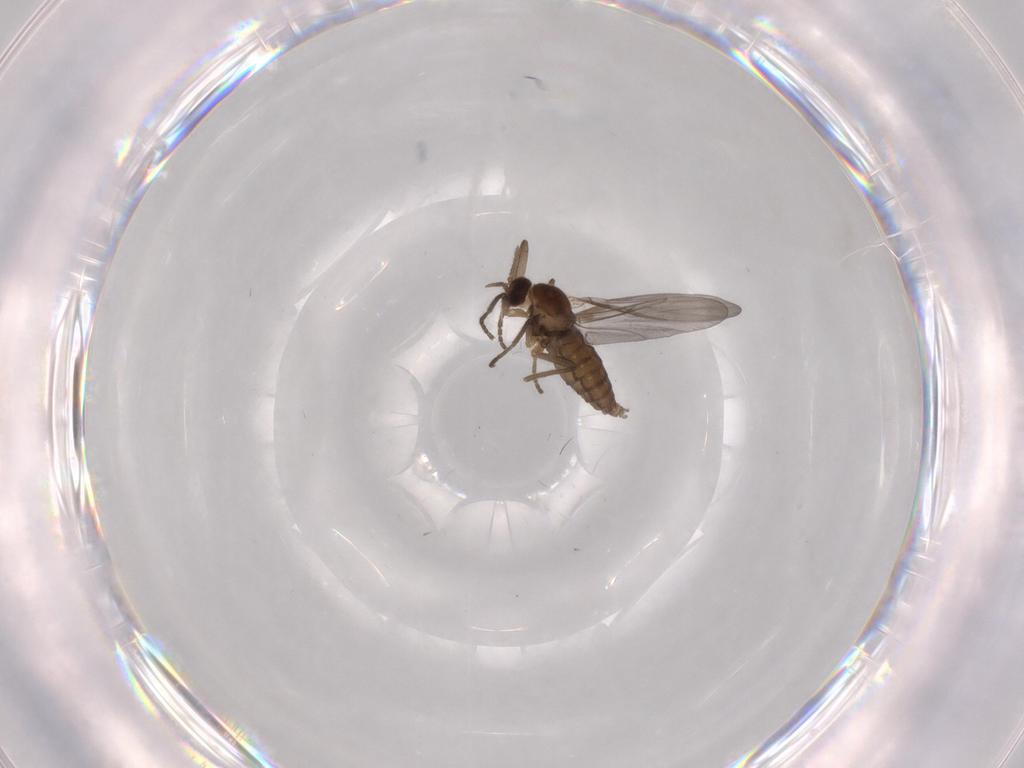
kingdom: Animalia
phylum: Arthropoda
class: Insecta
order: Diptera
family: Cecidomyiidae
